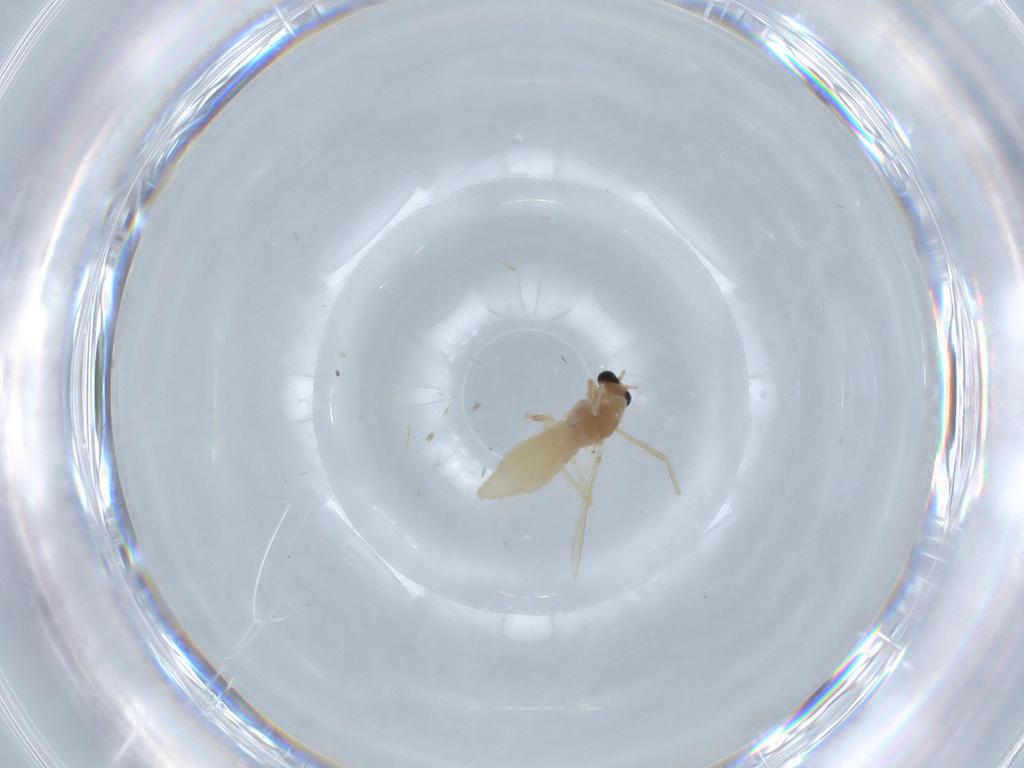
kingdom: Animalia
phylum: Arthropoda
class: Insecta
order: Diptera
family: Chironomidae
